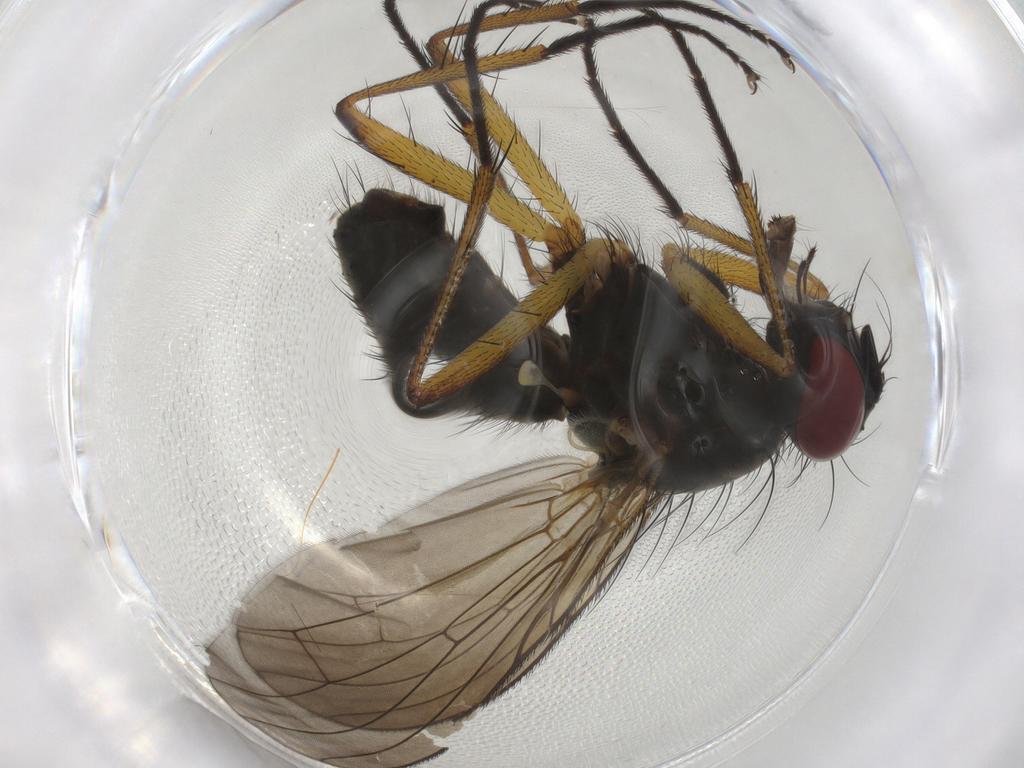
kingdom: Animalia
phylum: Arthropoda
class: Insecta
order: Diptera
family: Muscidae
